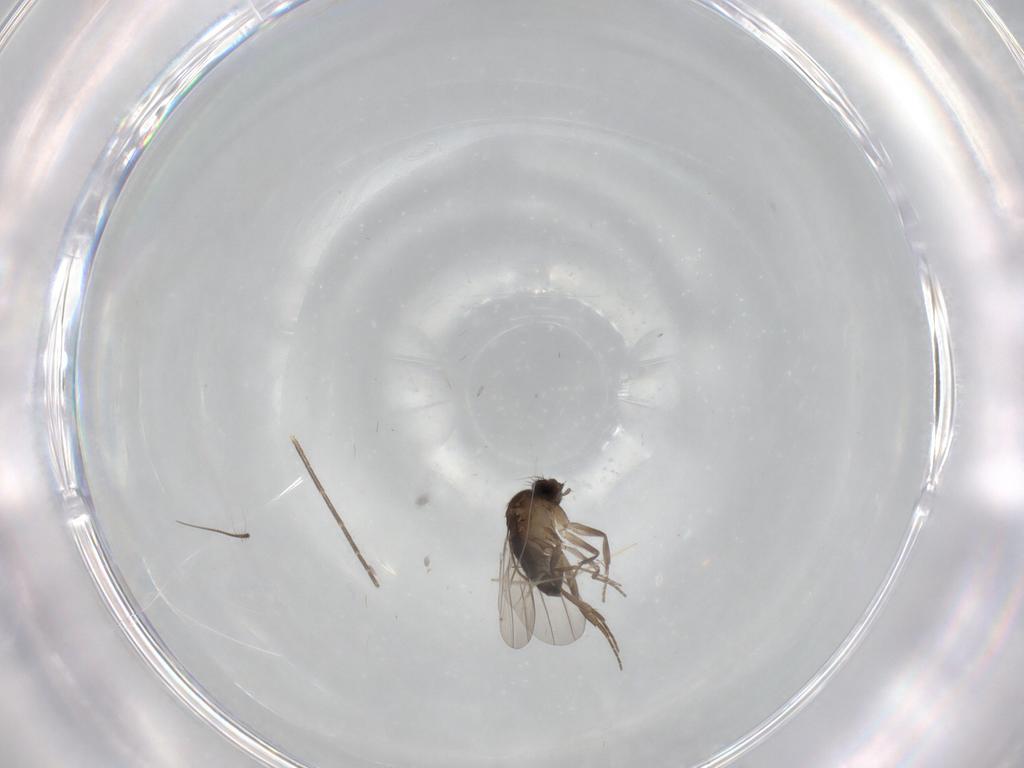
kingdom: Animalia
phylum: Arthropoda
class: Insecta
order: Diptera
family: Mycetophilidae
